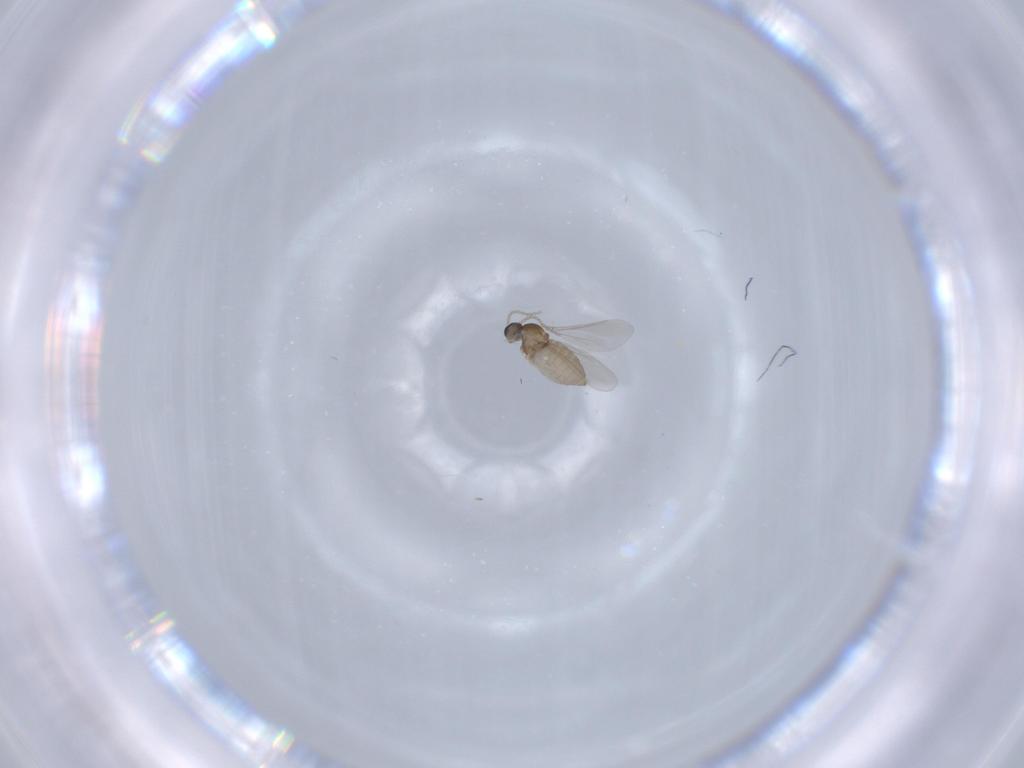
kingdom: Animalia
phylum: Arthropoda
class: Insecta
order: Diptera
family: Cecidomyiidae
